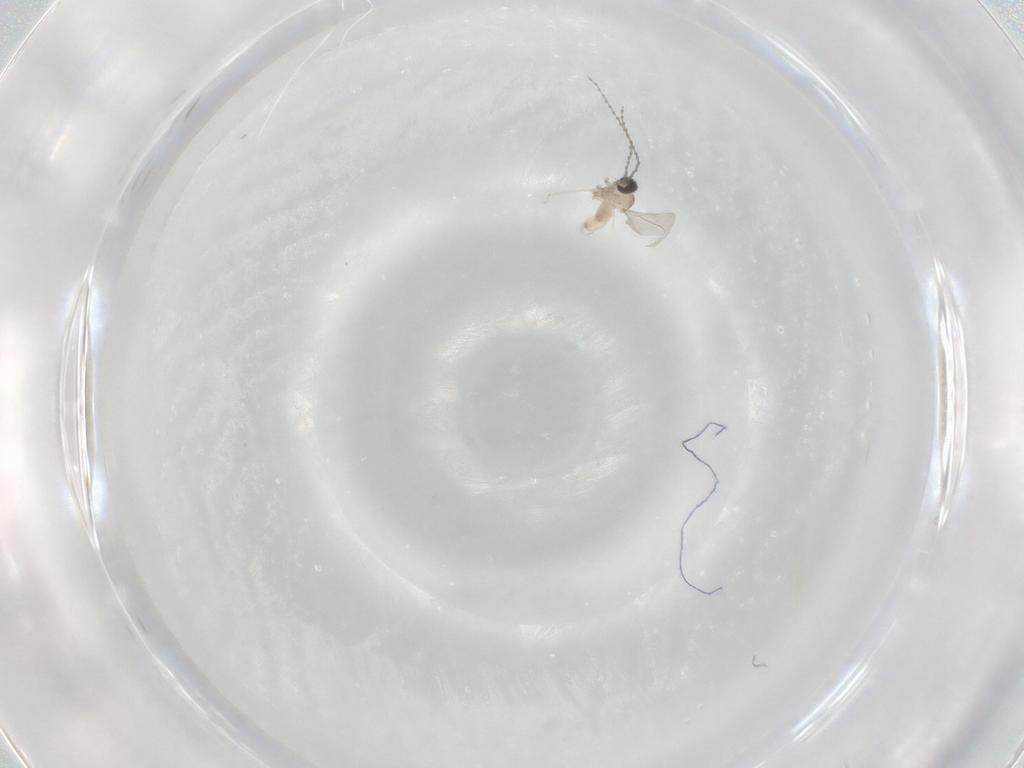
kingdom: Animalia
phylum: Arthropoda
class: Insecta
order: Diptera
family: Cecidomyiidae
